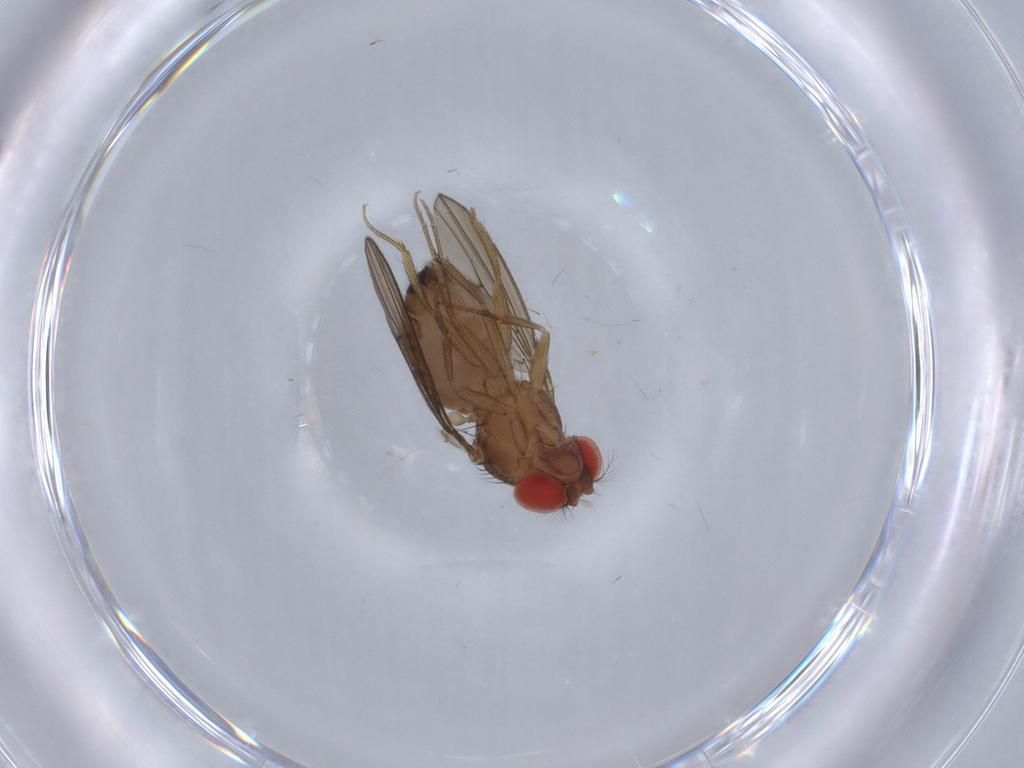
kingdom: Animalia
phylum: Arthropoda
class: Insecta
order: Diptera
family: Drosophilidae
